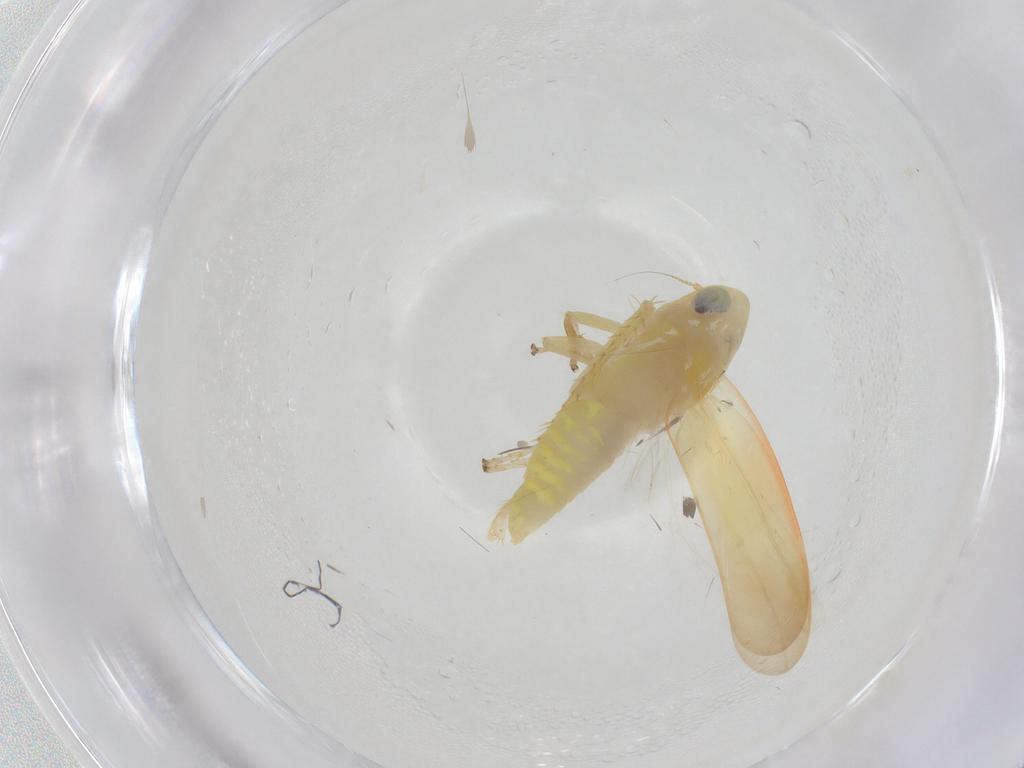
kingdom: Animalia
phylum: Arthropoda
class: Insecta
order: Hemiptera
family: Cicadellidae
